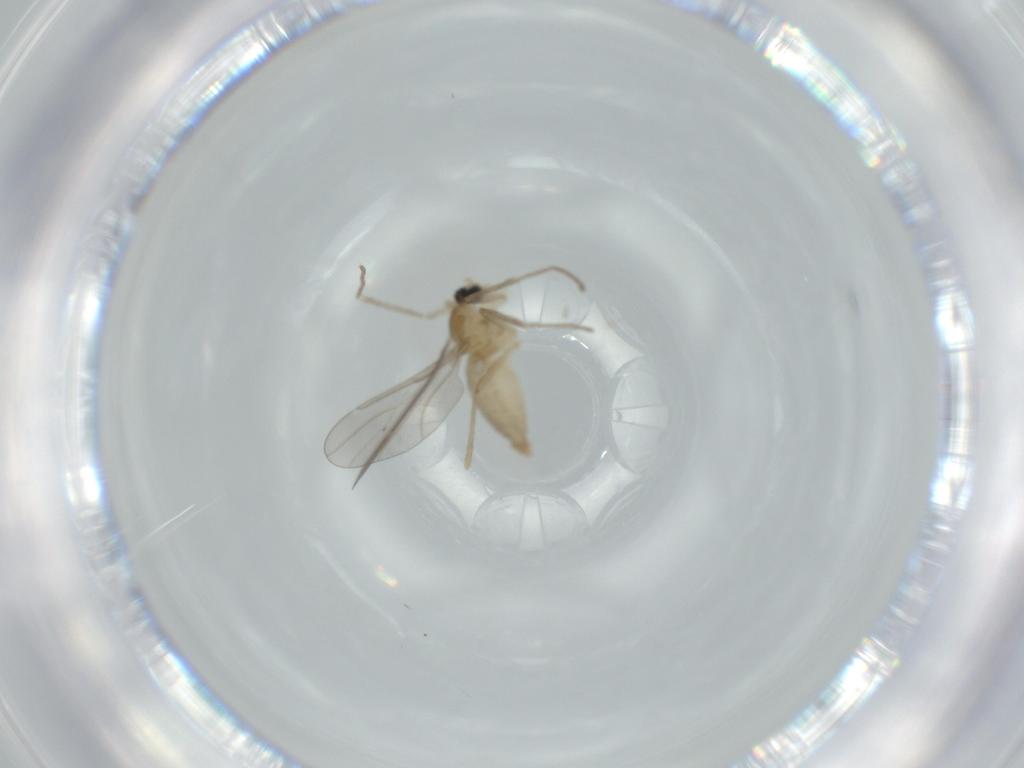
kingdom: Animalia
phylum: Arthropoda
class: Insecta
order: Diptera
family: Cecidomyiidae
